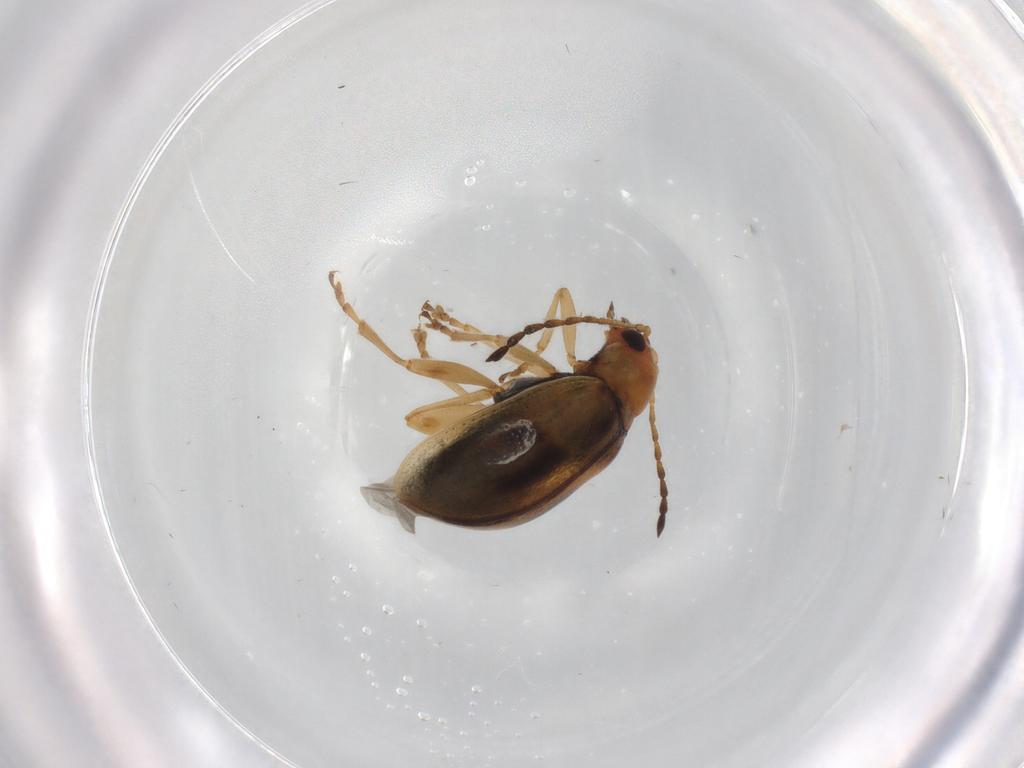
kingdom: Animalia
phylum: Arthropoda
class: Insecta
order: Coleoptera
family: Chrysomelidae
